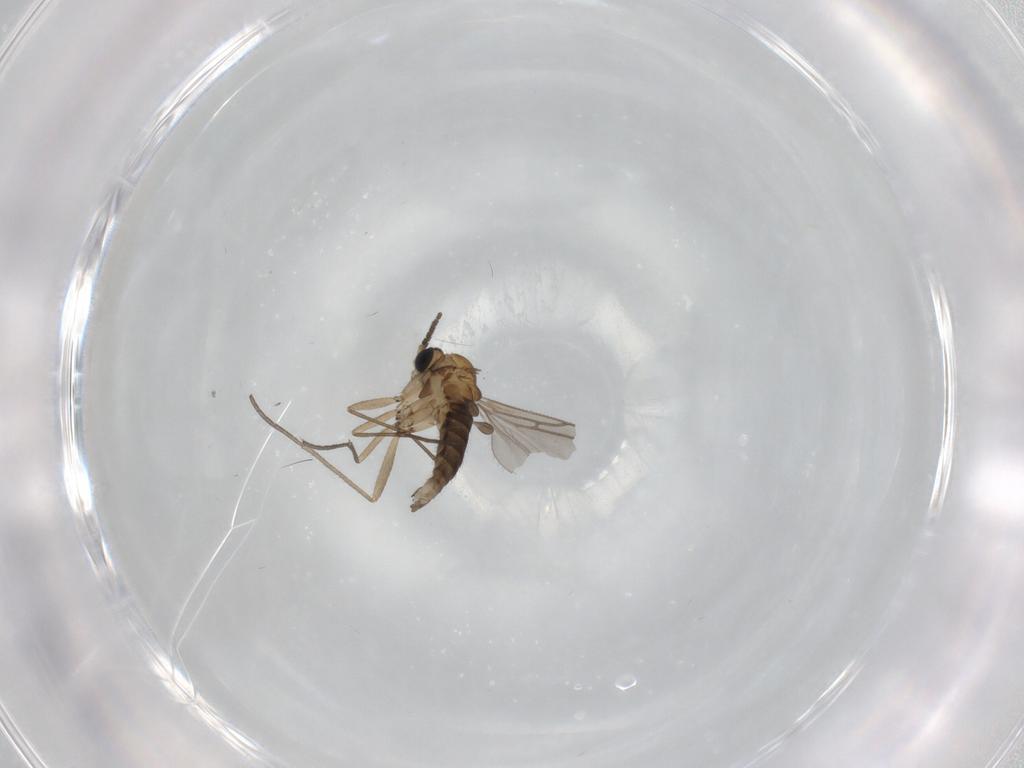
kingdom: Animalia
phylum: Arthropoda
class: Insecta
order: Diptera
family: Sciaridae
